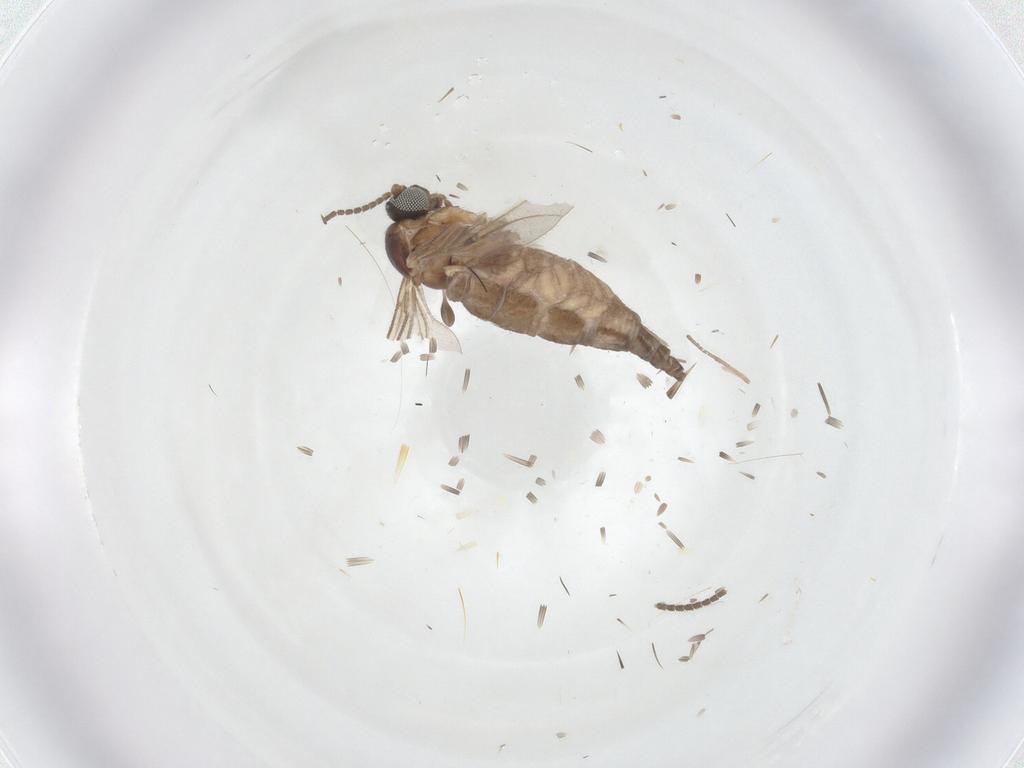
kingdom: Animalia
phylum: Arthropoda
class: Insecta
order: Diptera
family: Sciaridae
